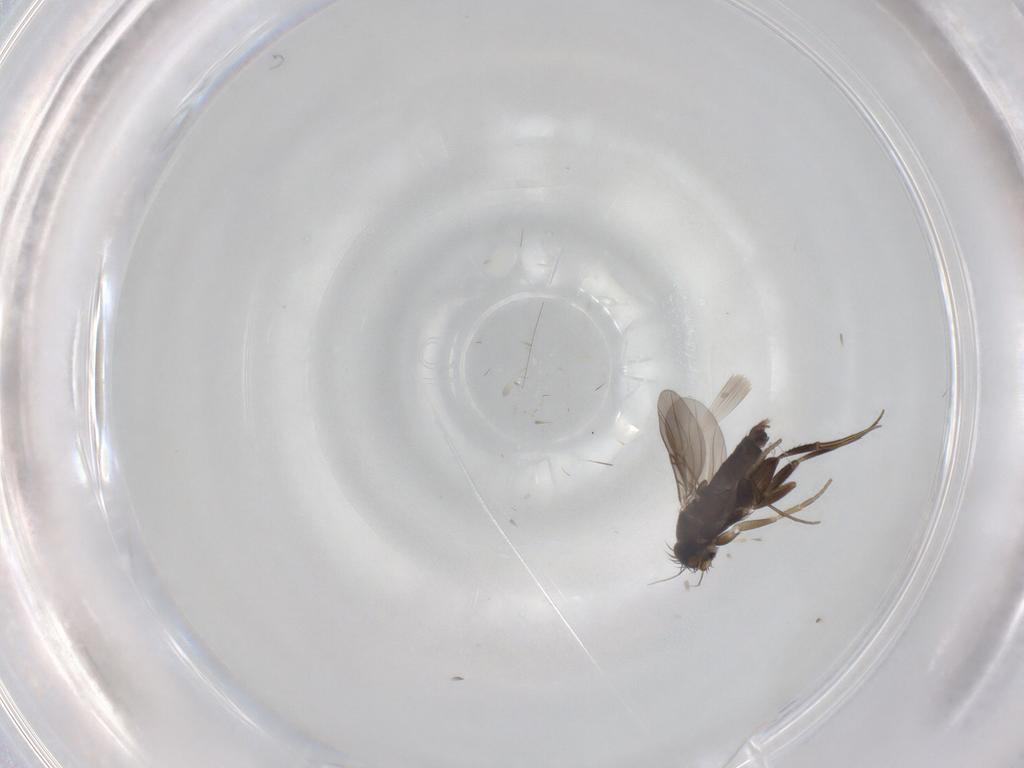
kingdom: Animalia
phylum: Arthropoda
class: Insecta
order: Diptera
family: Phoridae
